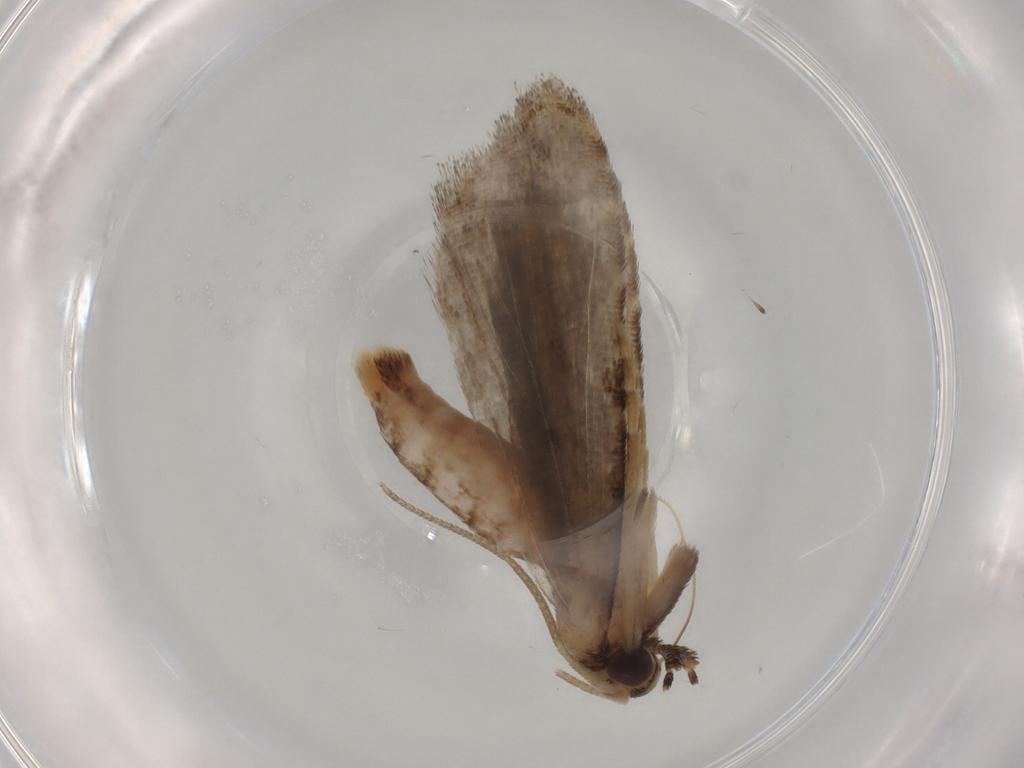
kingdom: Animalia
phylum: Arthropoda
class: Insecta
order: Lepidoptera
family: Erebidae
